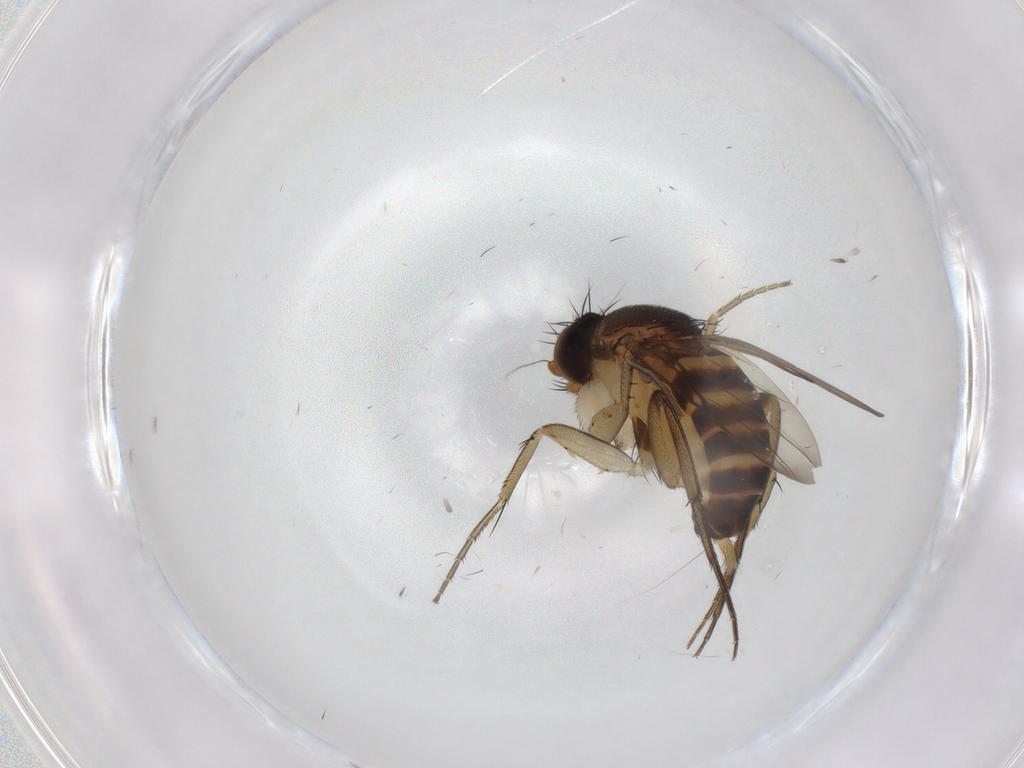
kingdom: Animalia
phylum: Arthropoda
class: Insecta
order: Diptera
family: Phoridae
